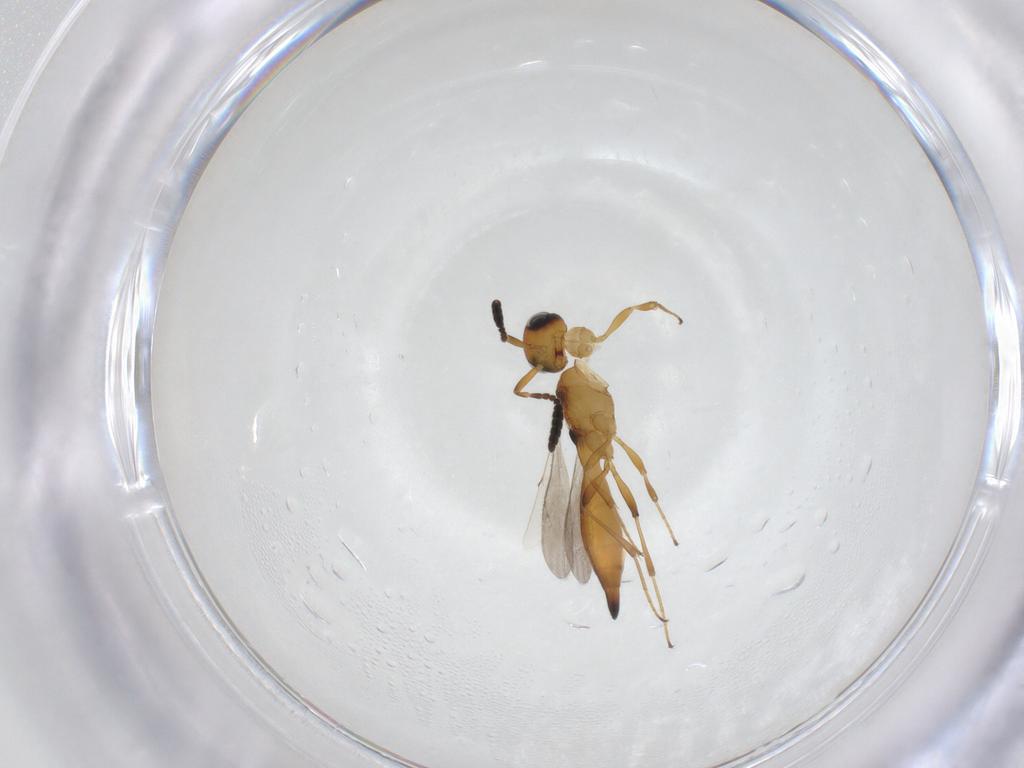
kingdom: Animalia
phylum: Arthropoda
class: Insecta
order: Hymenoptera
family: Scelionidae
